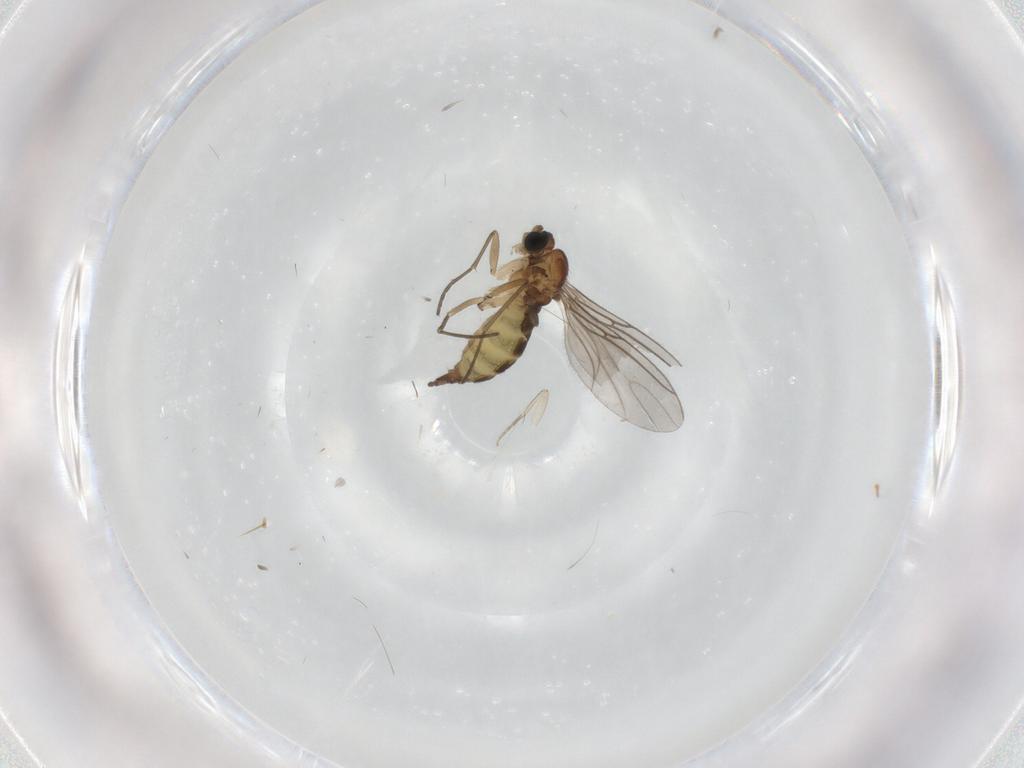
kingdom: Animalia
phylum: Arthropoda
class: Insecta
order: Diptera
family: Sciaridae
